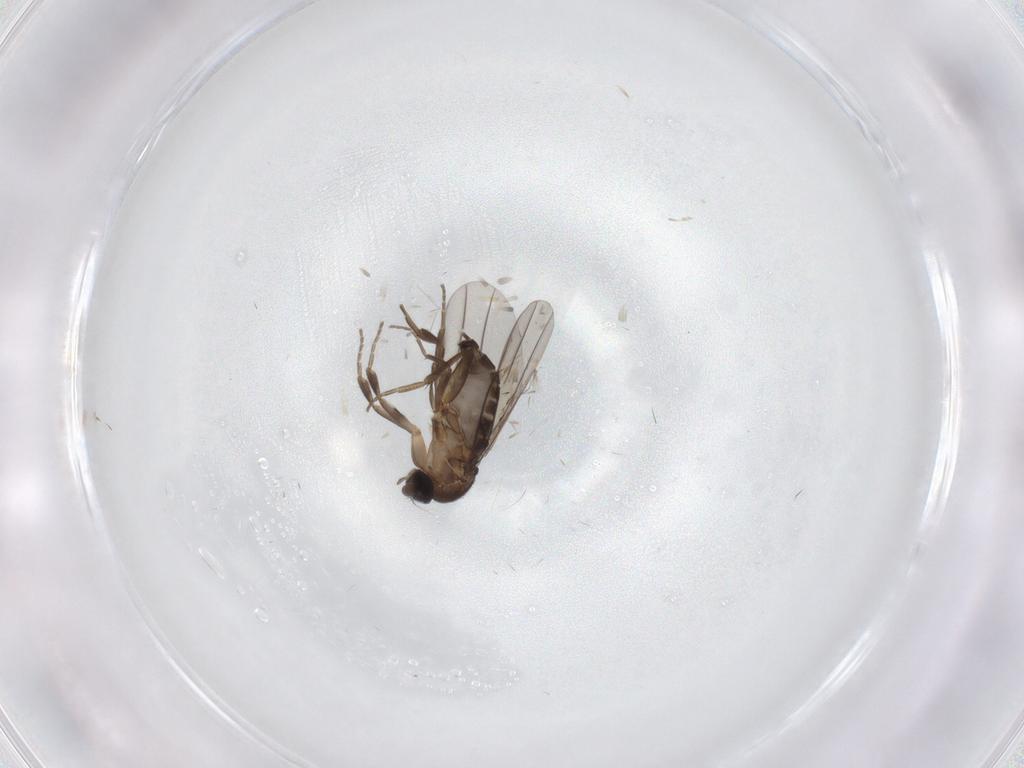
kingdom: Animalia
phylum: Arthropoda
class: Insecta
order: Diptera
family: Phoridae
